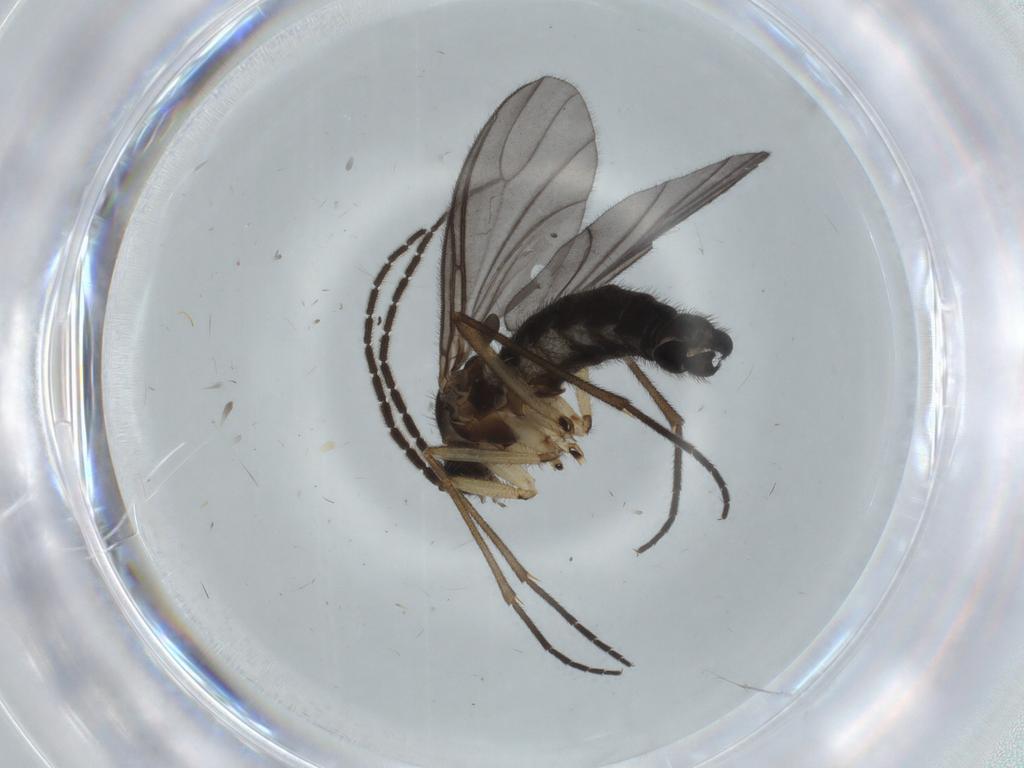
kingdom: Animalia
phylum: Arthropoda
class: Insecta
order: Diptera
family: Sciaridae
